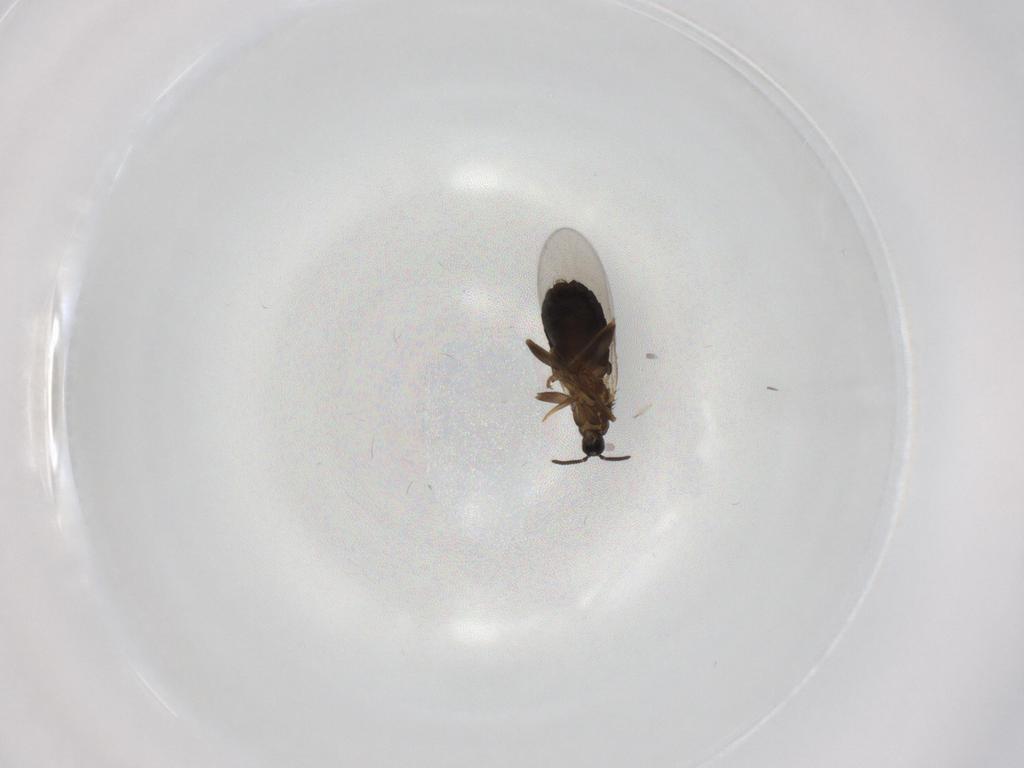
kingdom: Animalia
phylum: Arthropoda
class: Insecta
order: Diptera
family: Scatopsidae
